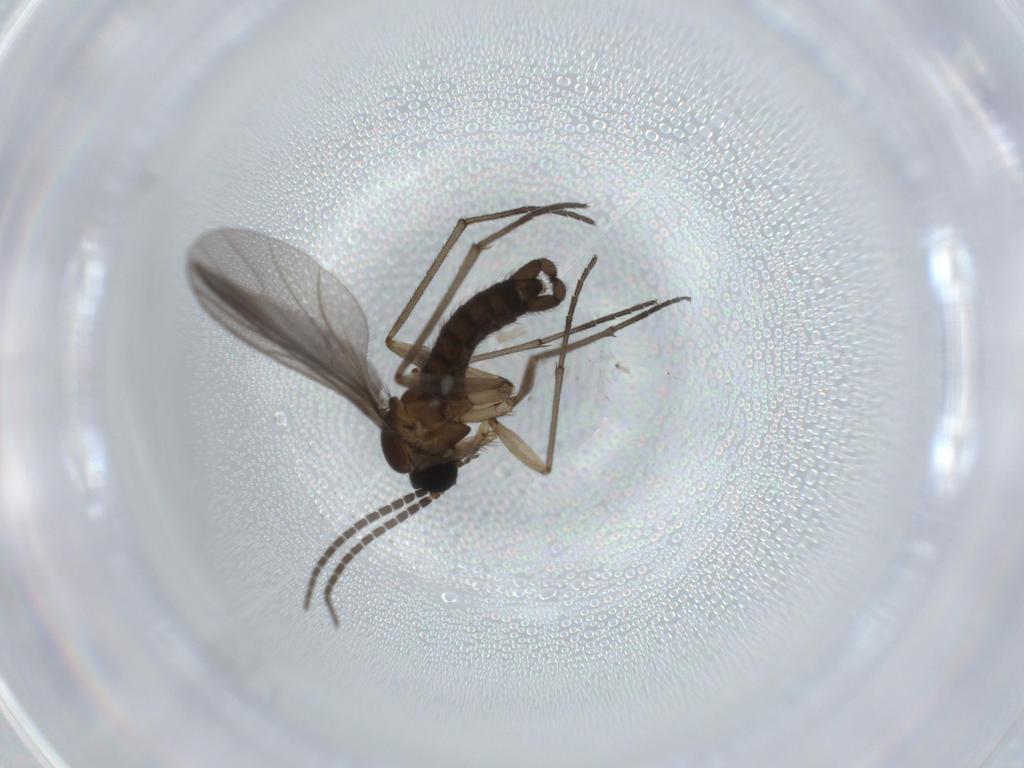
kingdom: Animalia
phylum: Arthropoda
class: Insecta
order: Diptera
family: Sciaridae
